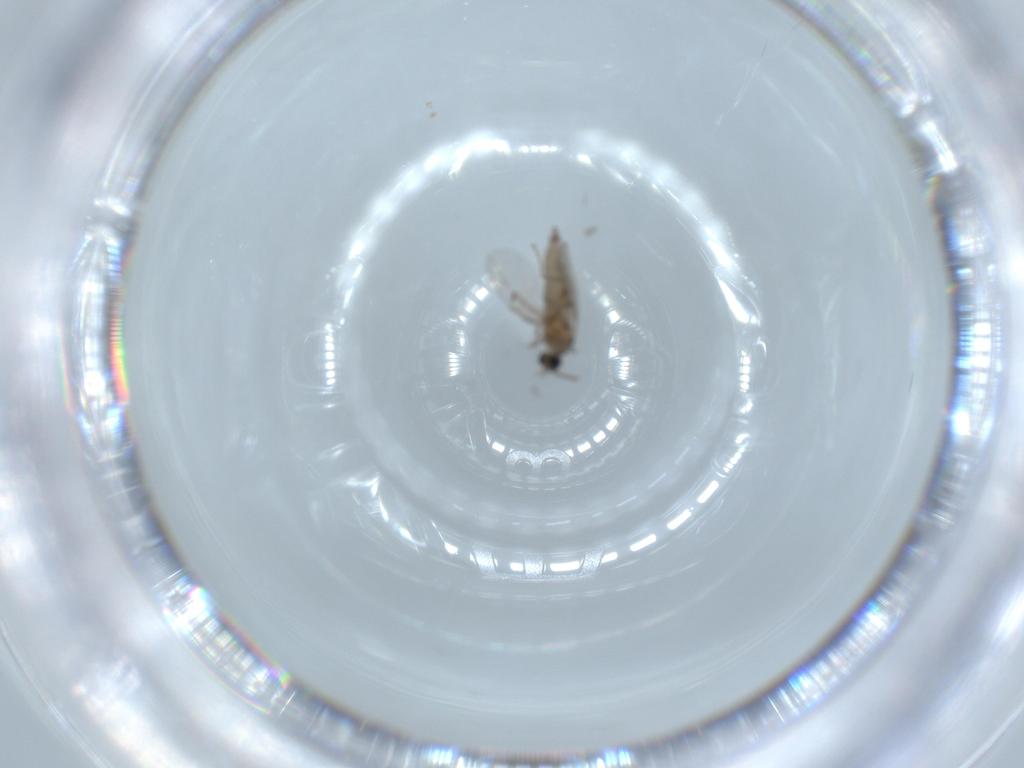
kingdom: Animalia
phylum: Arthropoda
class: Insecta
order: Diptera
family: Cecidomyiidae
